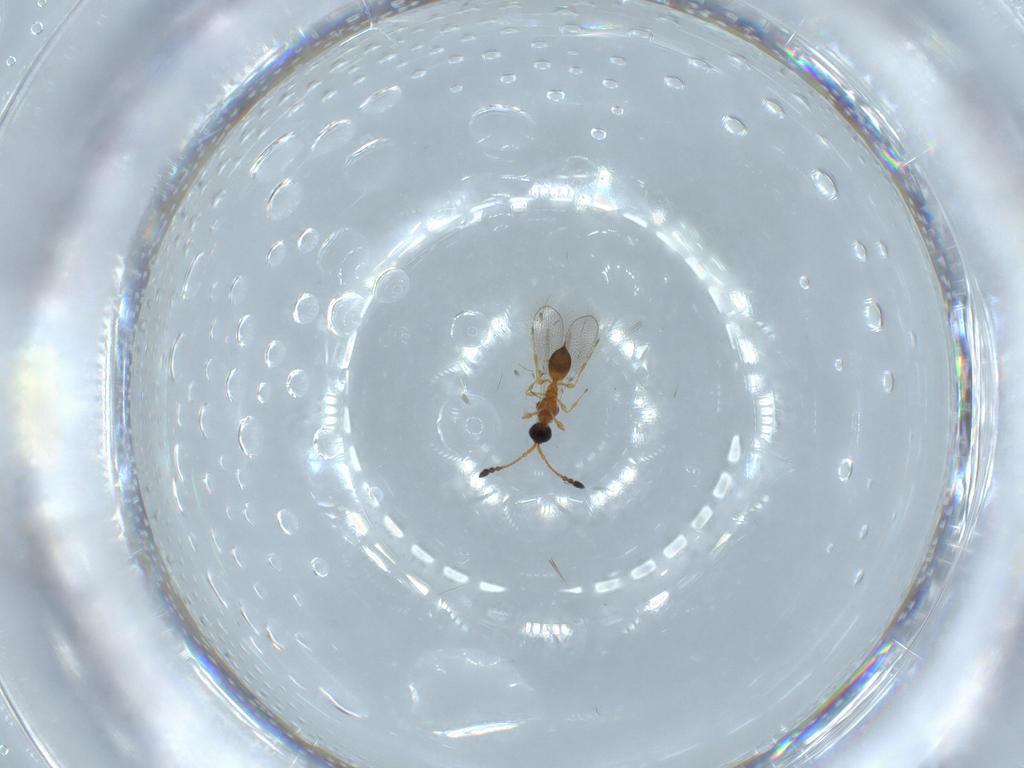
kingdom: Animalia
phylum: Arthropoda
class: Insecta
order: Hymenoptera
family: Diapriidae
